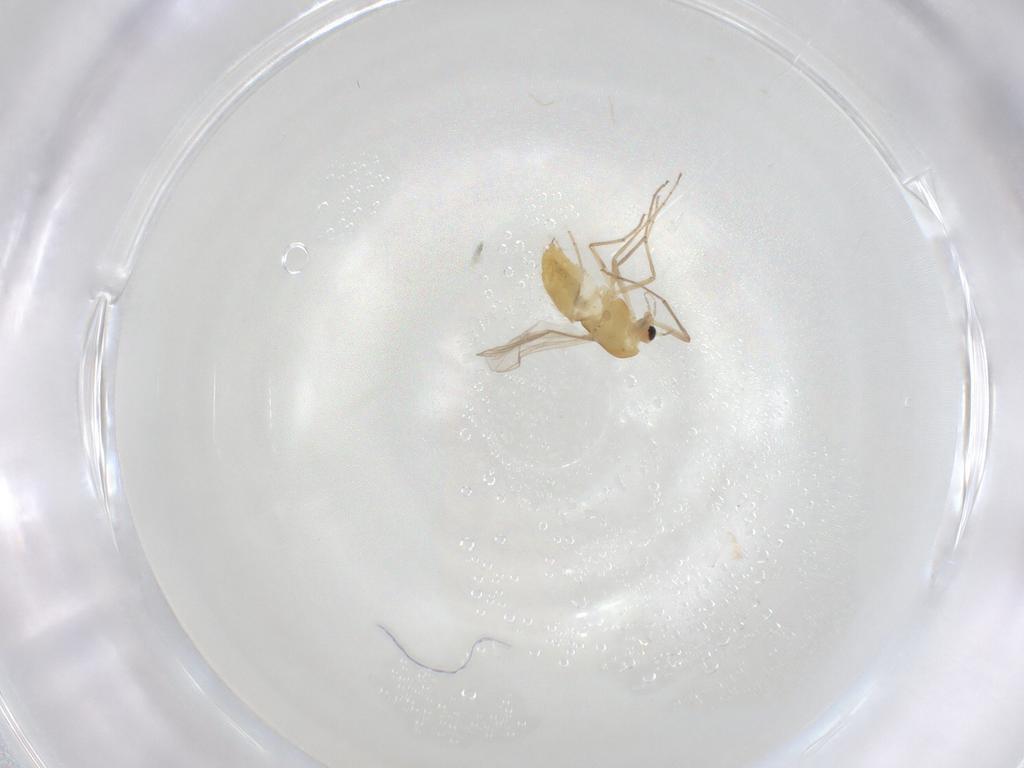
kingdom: Animalia
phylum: Arthropoda
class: Insecta
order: Diptera
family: Chironomidae
